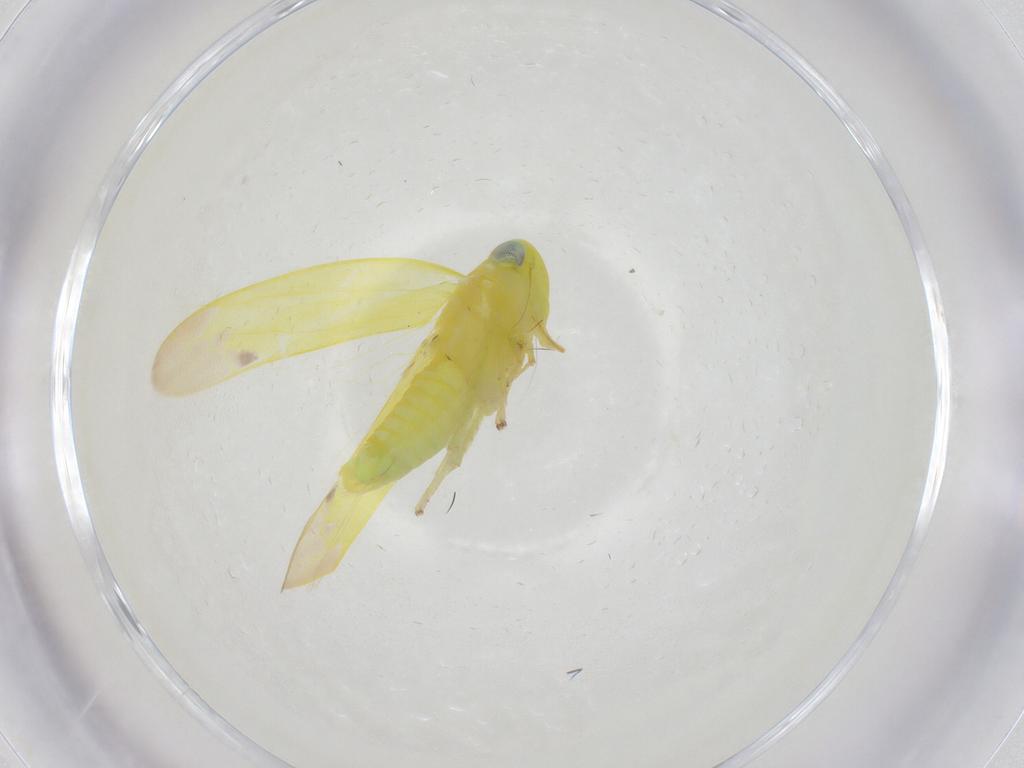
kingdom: Animalia
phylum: Arthropoda
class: Insecta
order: Hemiptera
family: Cicadellidae
